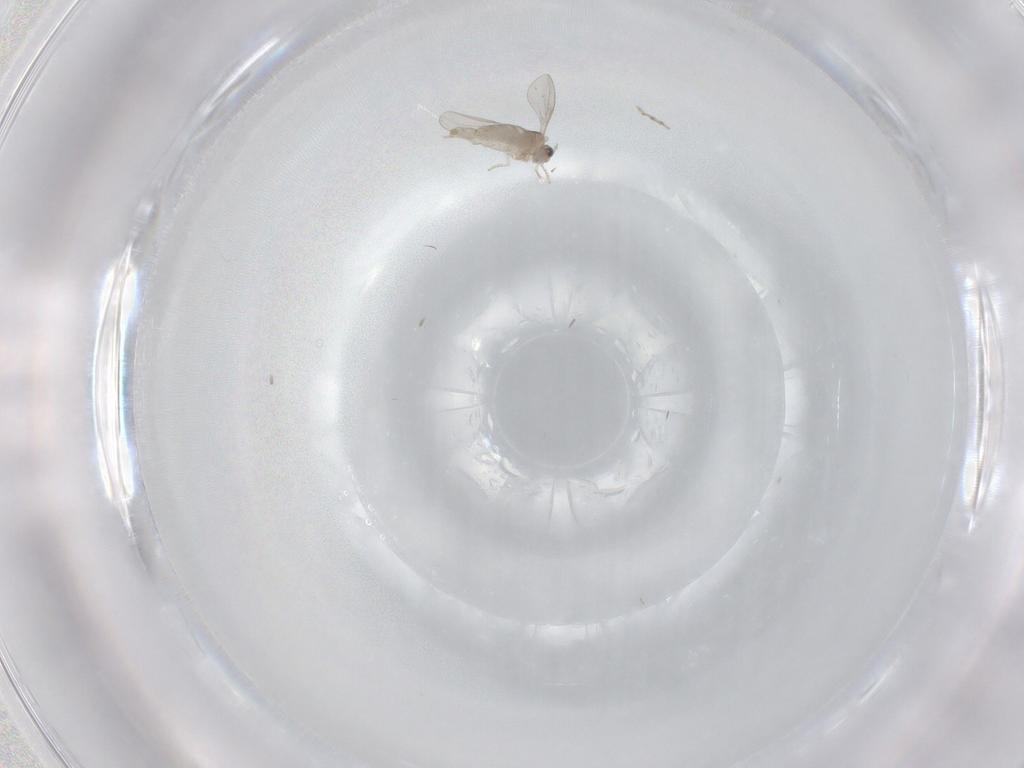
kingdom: Animalia
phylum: Arthropoda
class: Insecta
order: Diptera
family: Cecidomyiidae
